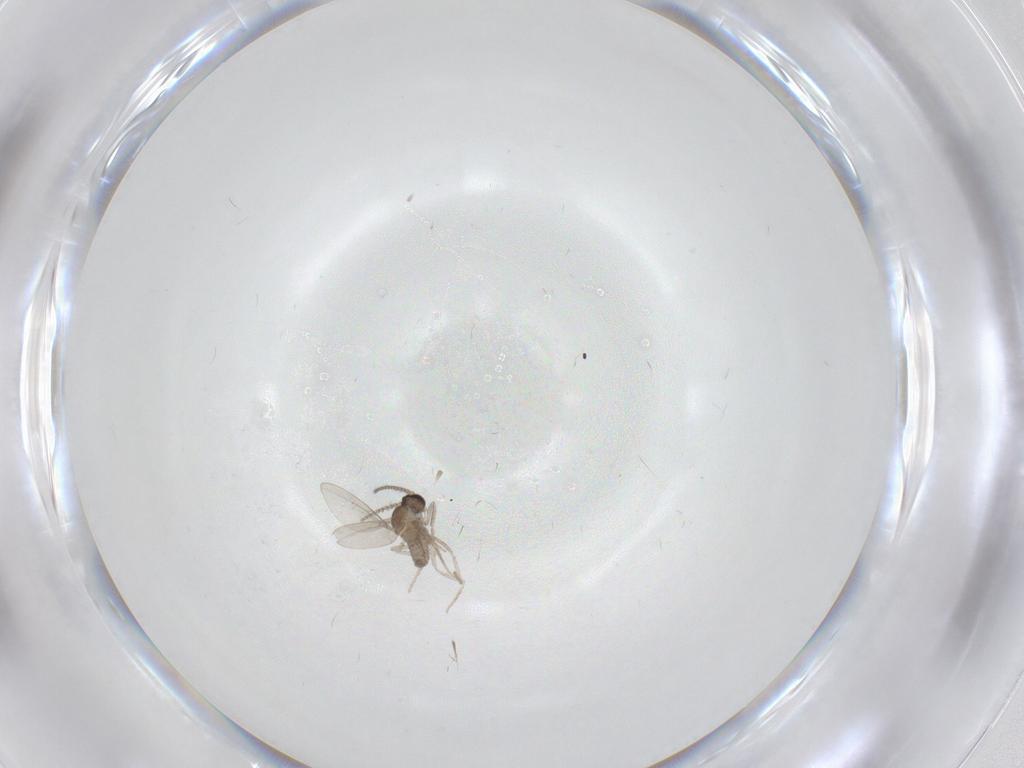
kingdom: Animalia
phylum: Arthropoda
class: Insecta
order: Diptera
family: Cecidomyiidae
